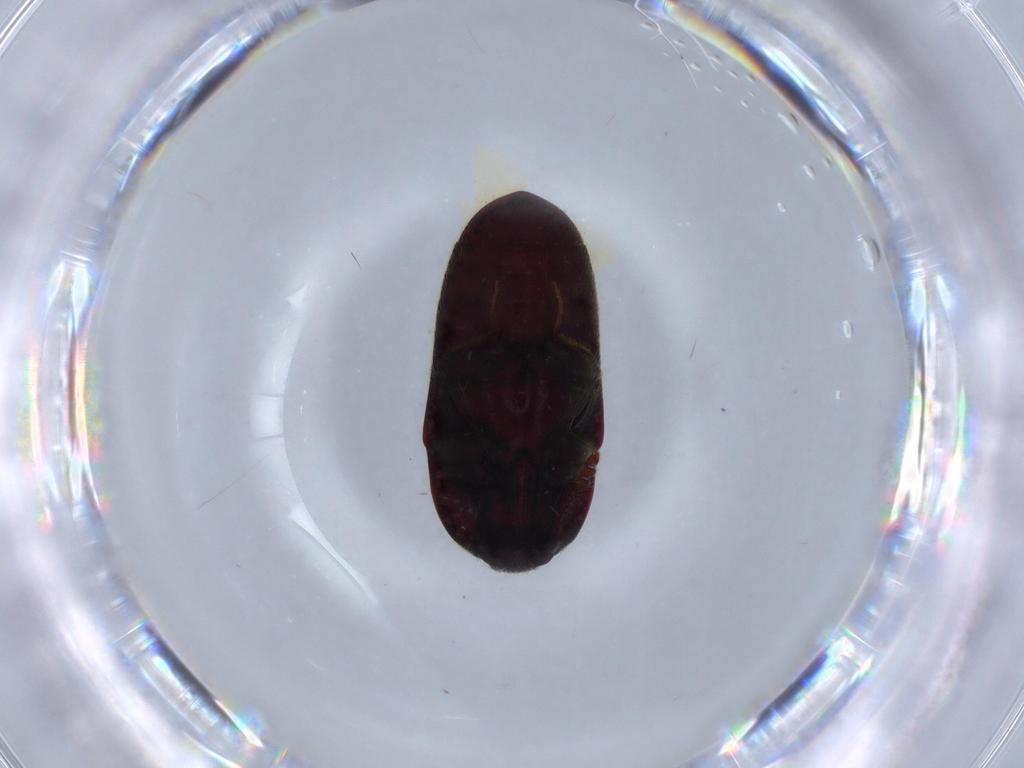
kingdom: Animalia
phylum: Arthropoda
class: Insecta
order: Coleoptera
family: Throscidae
